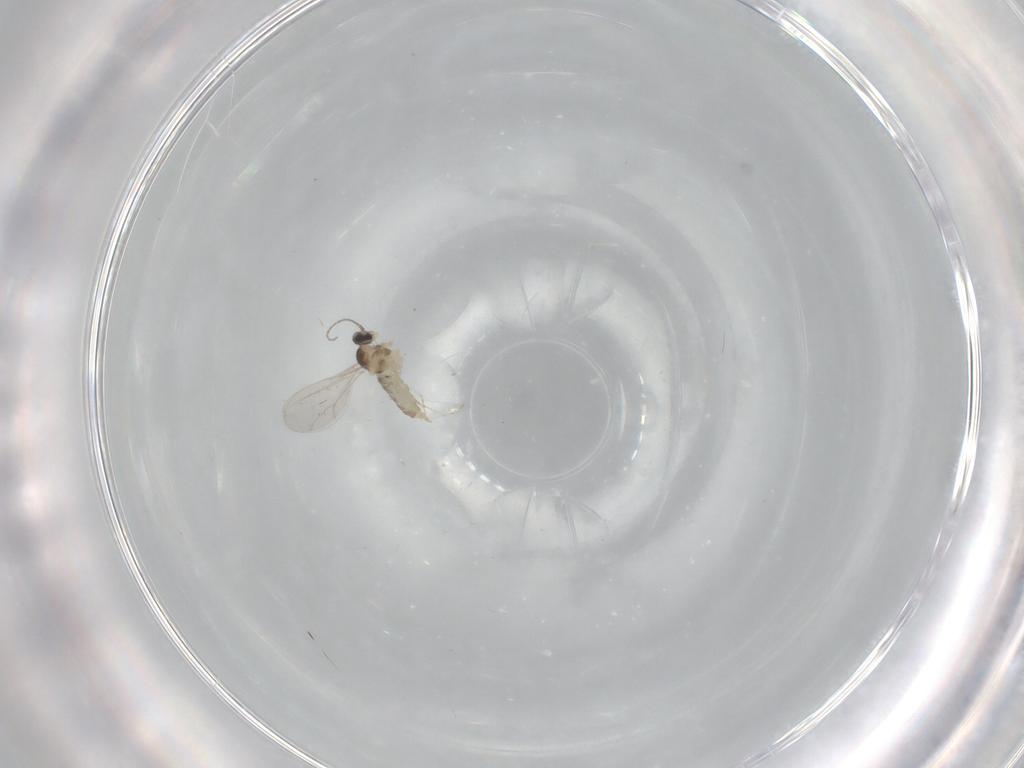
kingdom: Animalia
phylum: Arthropoda
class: Insecta
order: Diptera
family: Cecidomyiidae
